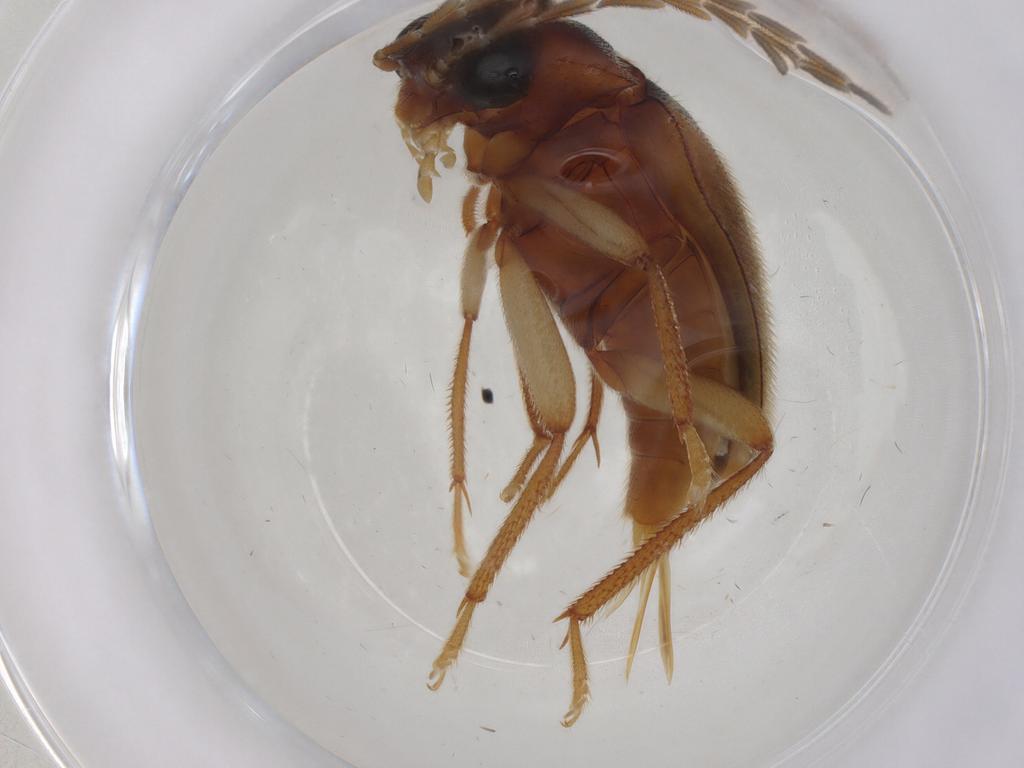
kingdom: Animalia
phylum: Arthropoda
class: Insecta
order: Coleoptera
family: Ptilodactylidae
